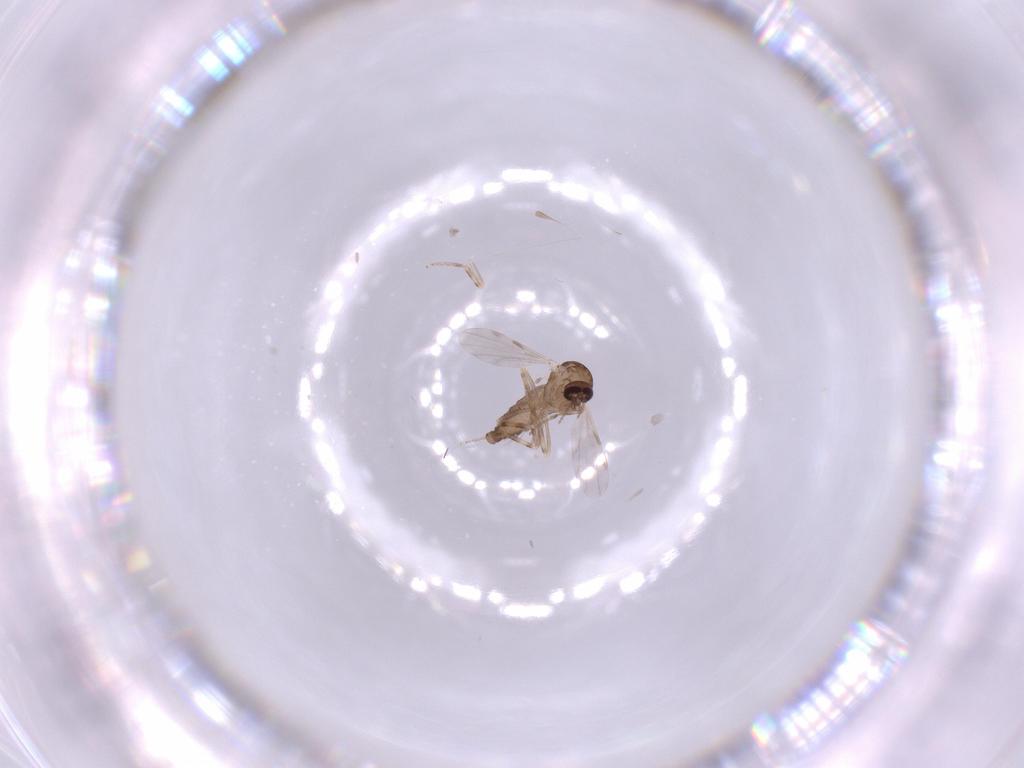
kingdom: Animalia
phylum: Arthropoda
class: Insecta
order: Diptera
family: Ceratopogonidae
